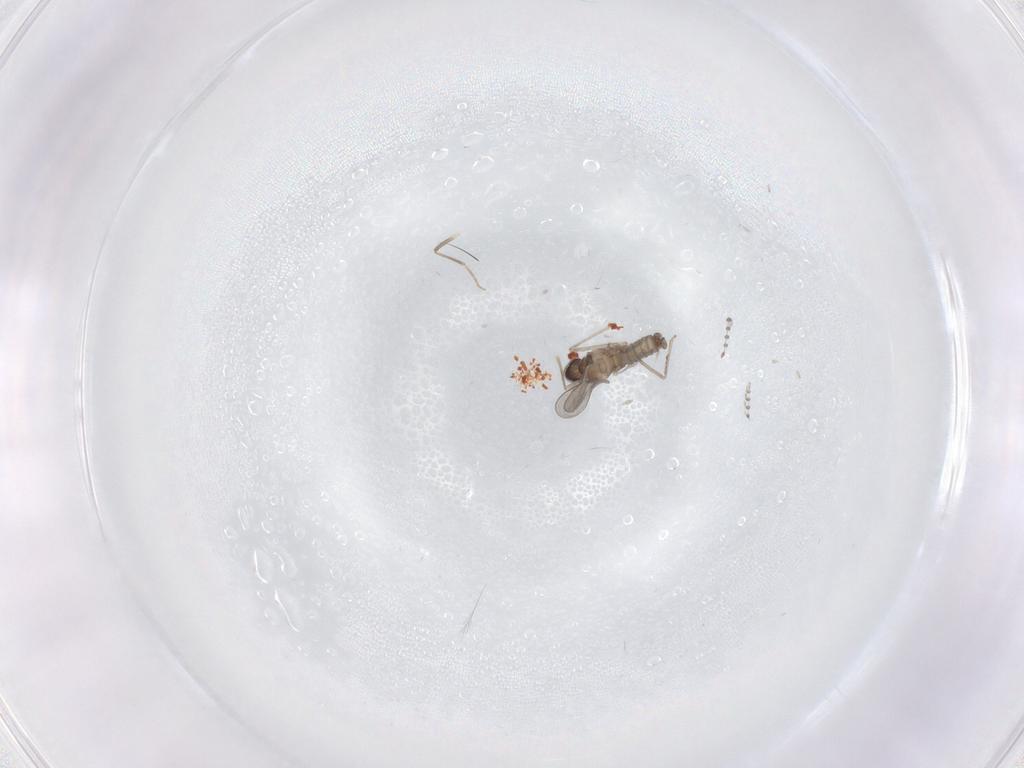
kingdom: Animalia
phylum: Arthropoda
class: Insecta
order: Diptera
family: Cecidomyiidae
